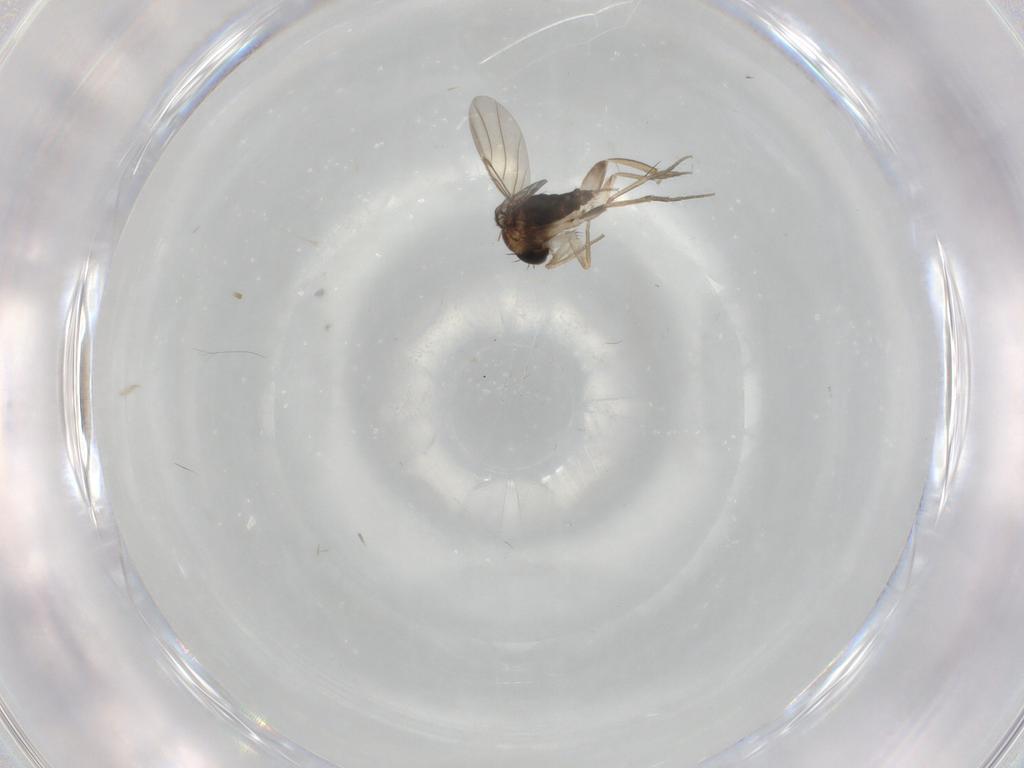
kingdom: Animalia
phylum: Arthropoda
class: Insecta
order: Diptera
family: Phoridae
